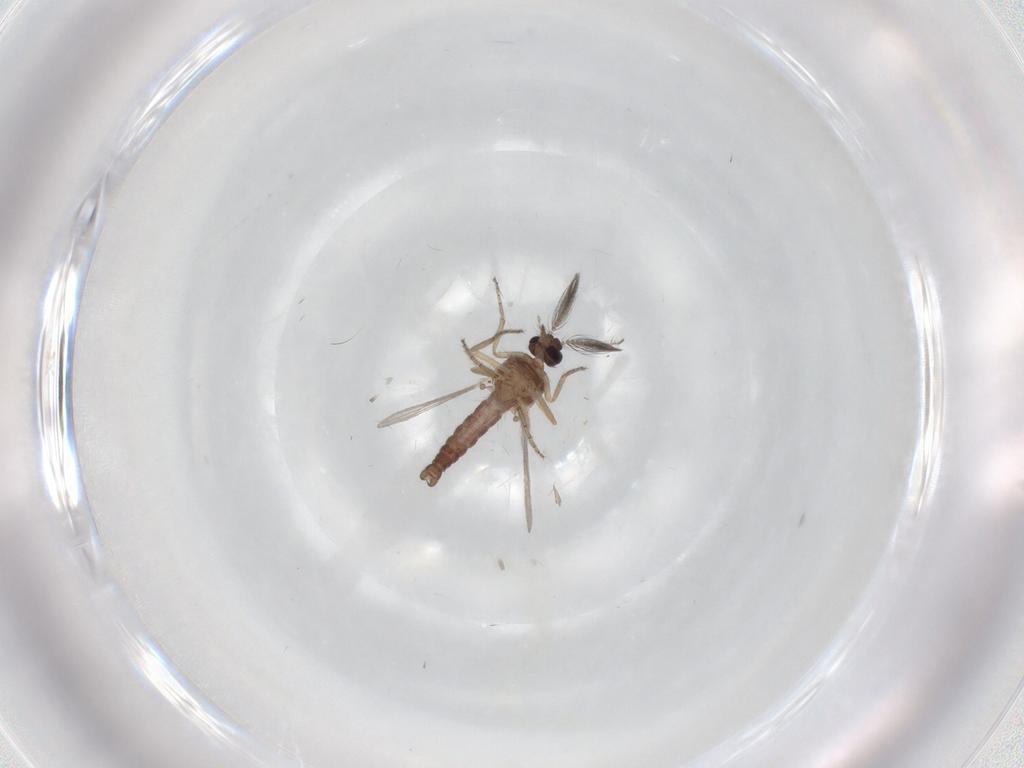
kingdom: Animalia
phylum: Arthropoda
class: Insecta
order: Diptera
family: Ceratopogonidae
